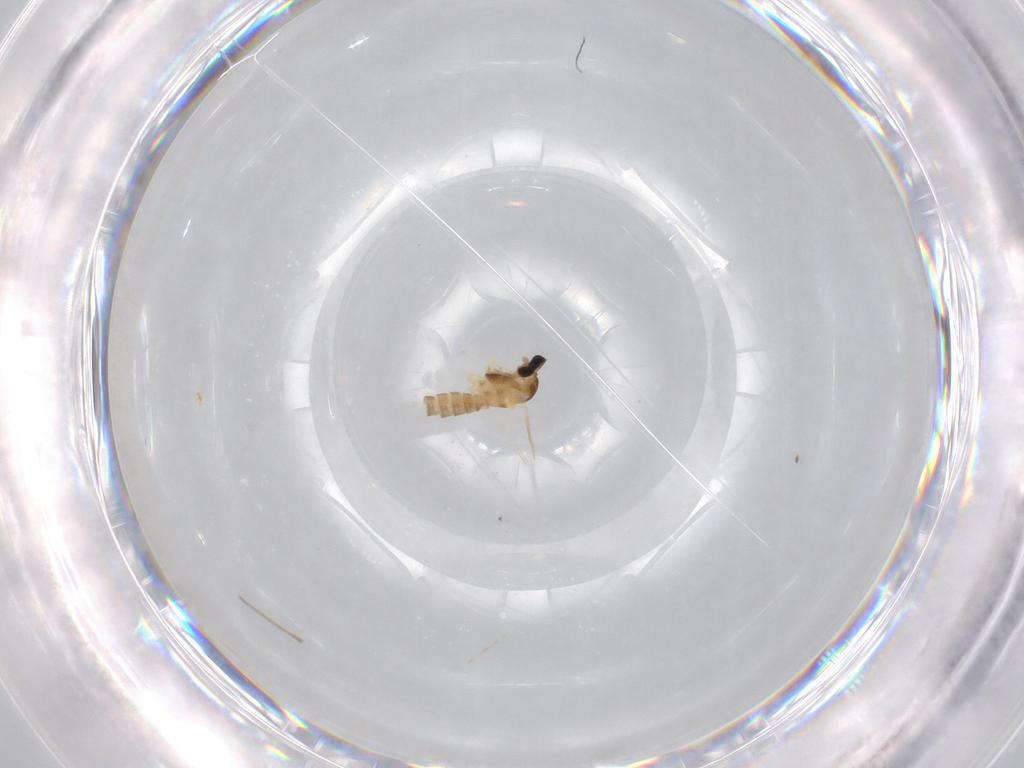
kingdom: Animalia
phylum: Arthropoda
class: Insecta
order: Diptera
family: Cecidomyiidae
